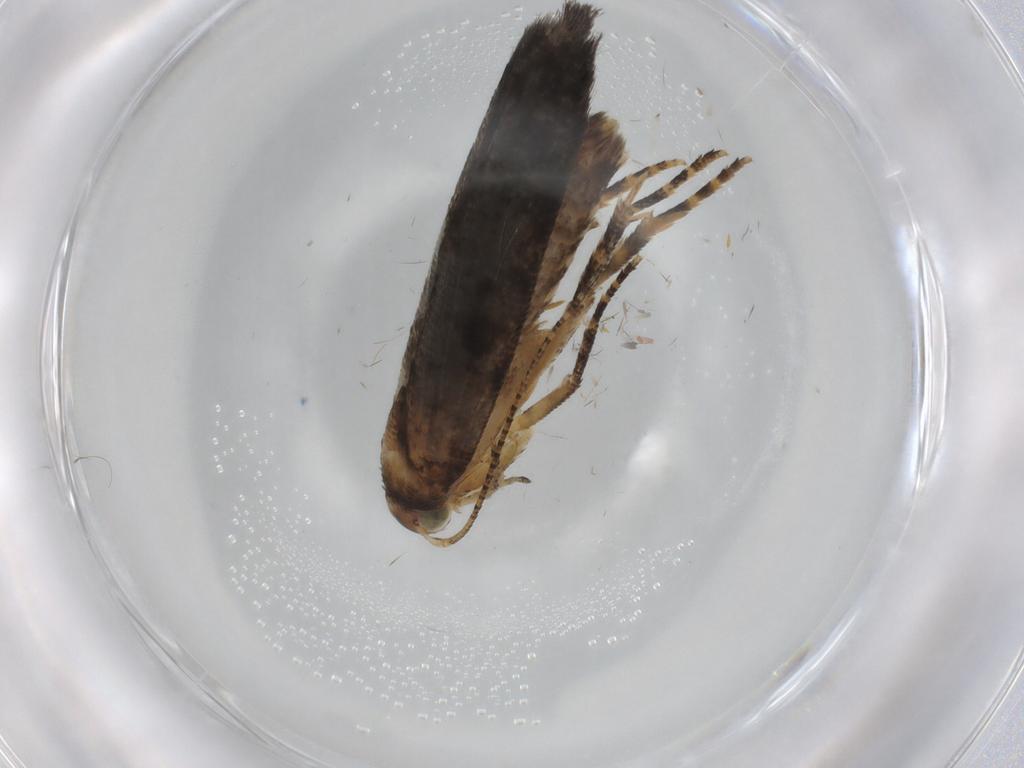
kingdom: Animalia
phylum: Arthropoda
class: Insecta
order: Lepidoptera
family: Gelechiidae
